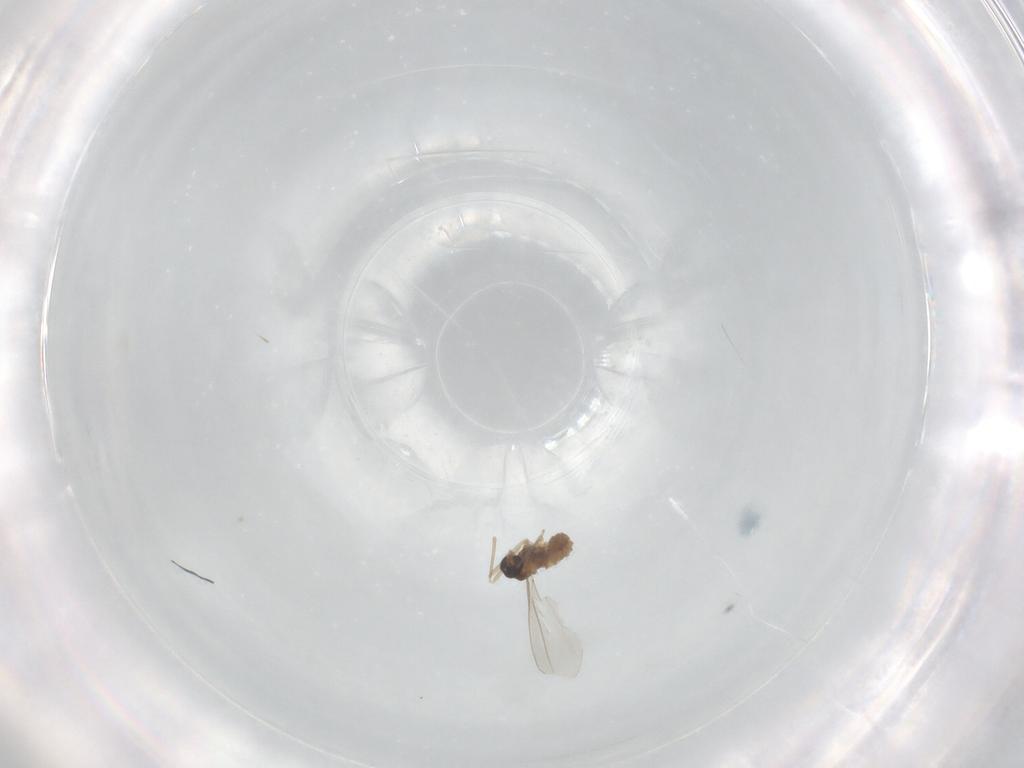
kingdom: Animalia
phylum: Arthropoda
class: Insecta
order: Diptera
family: Cecidomyiidae
